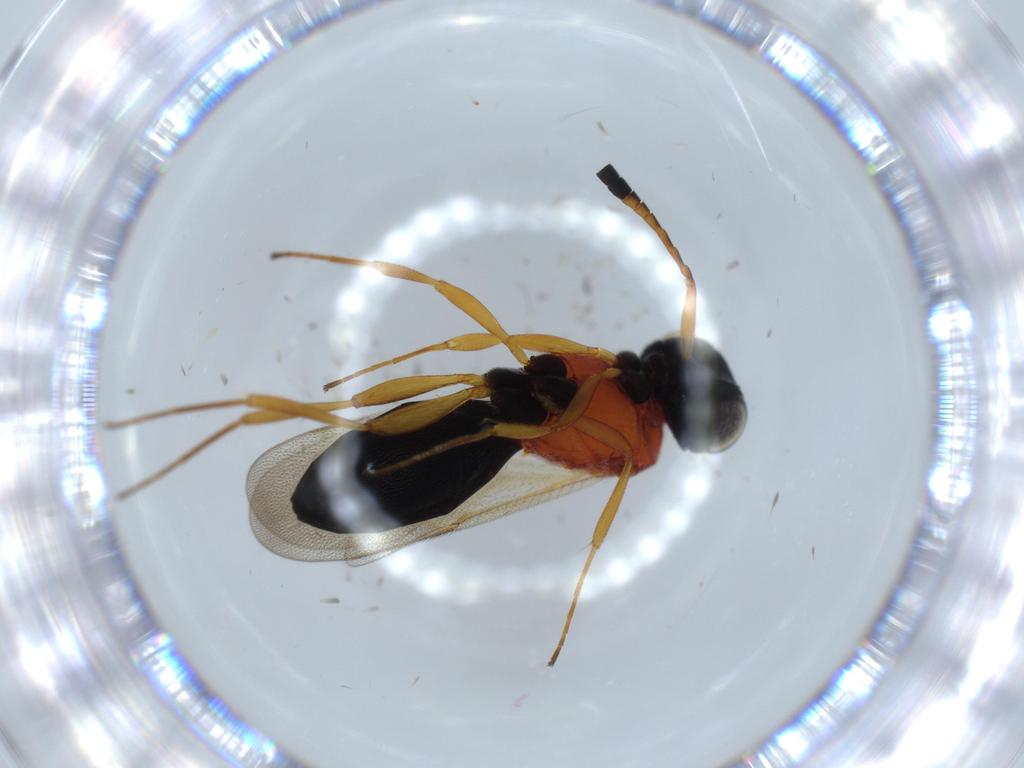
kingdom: Animalia
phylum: Arthropoda
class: Insecta
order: Hymenoptera
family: Scelionidae
